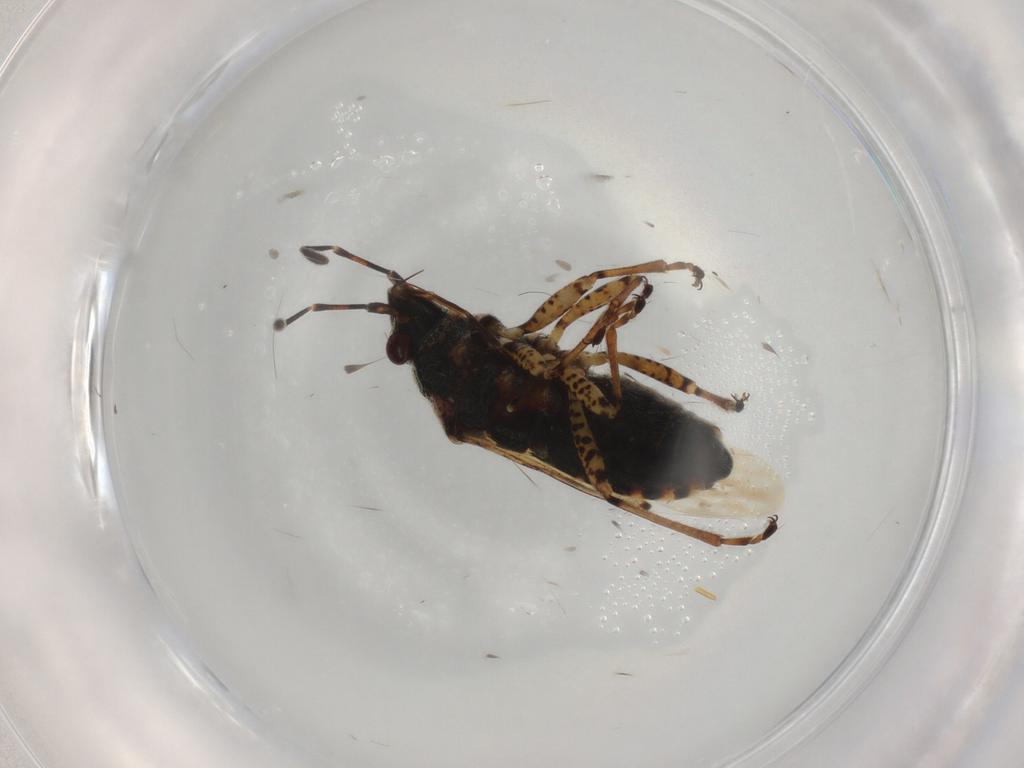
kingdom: Animalia
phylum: Arthropoda
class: Insecta
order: Hemiptera
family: Lygaeidae
